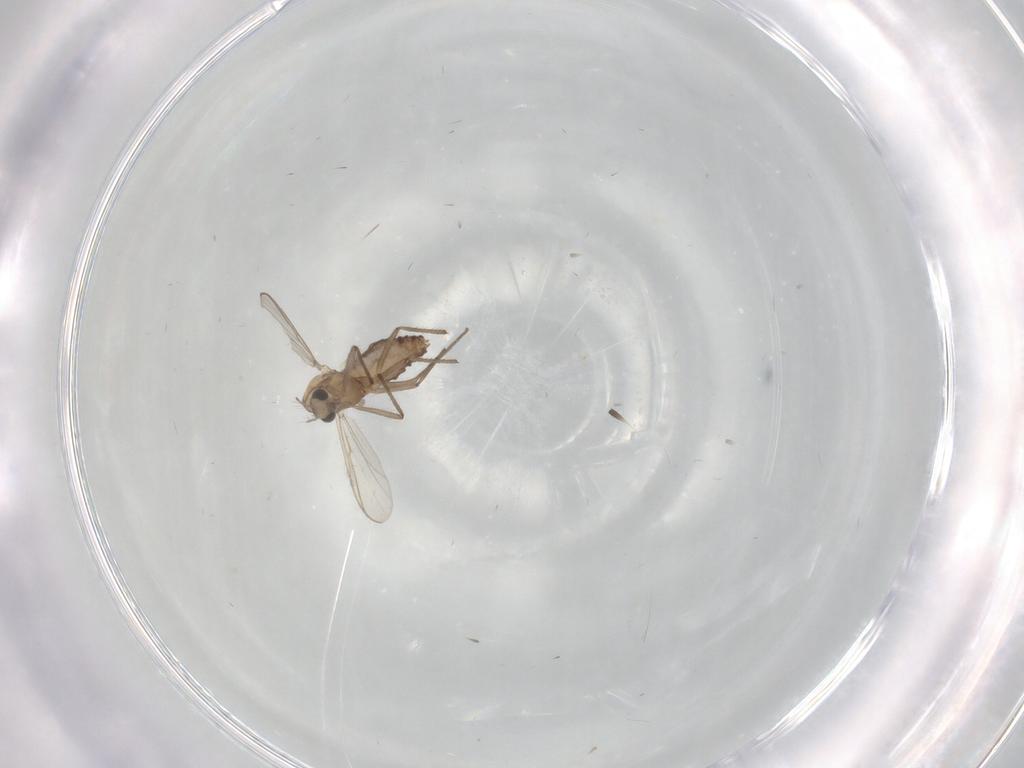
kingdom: Animalia
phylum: Arthropoda
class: Insecta
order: Diptera
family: Chironomidae
